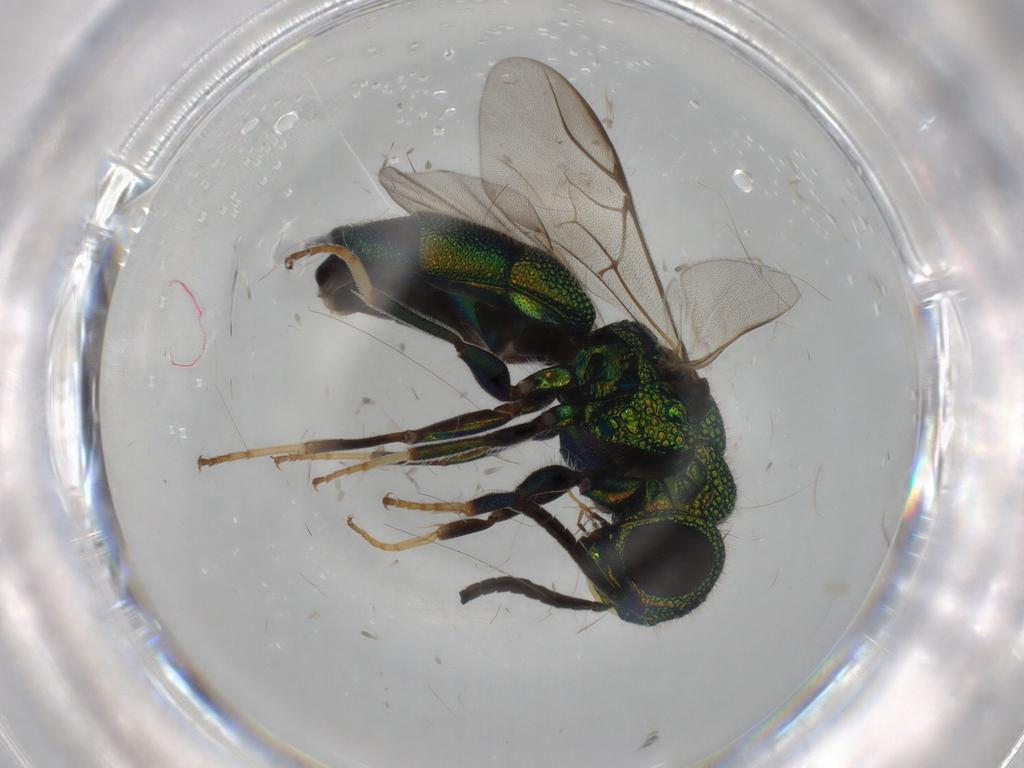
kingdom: Animalia
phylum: Arthropoda
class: Insecta
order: Hymenoptera
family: Chrysididae
